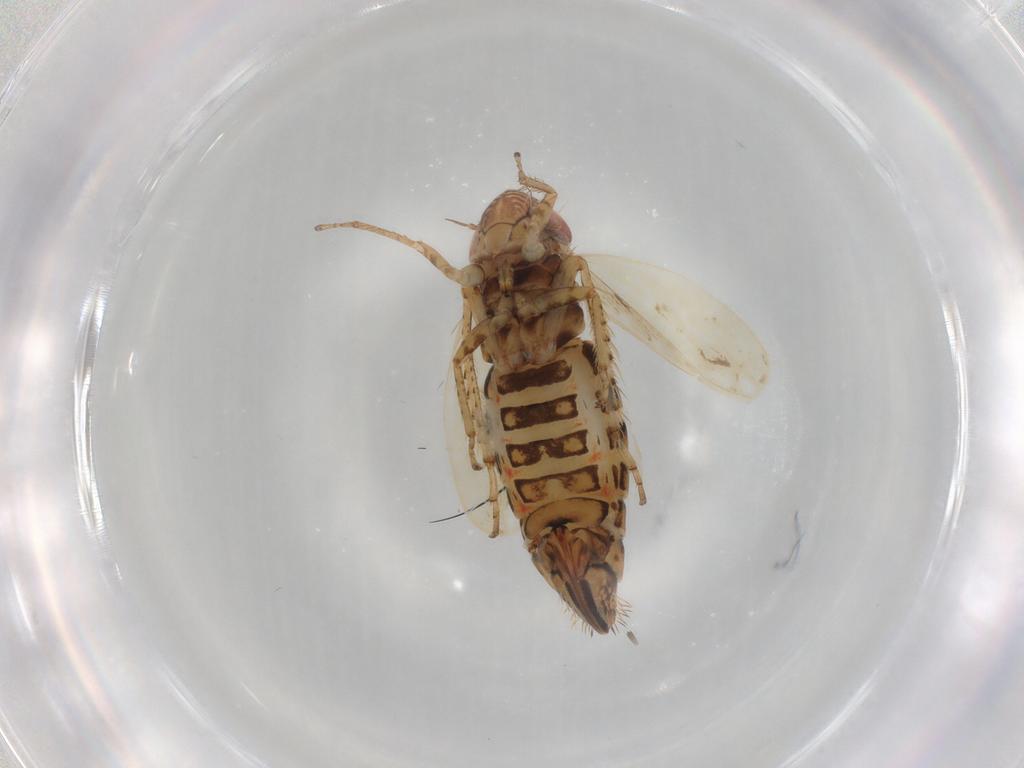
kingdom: Animalia
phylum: Arthropoda
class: Insecta
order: Hemiptera
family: Cicadellidae
